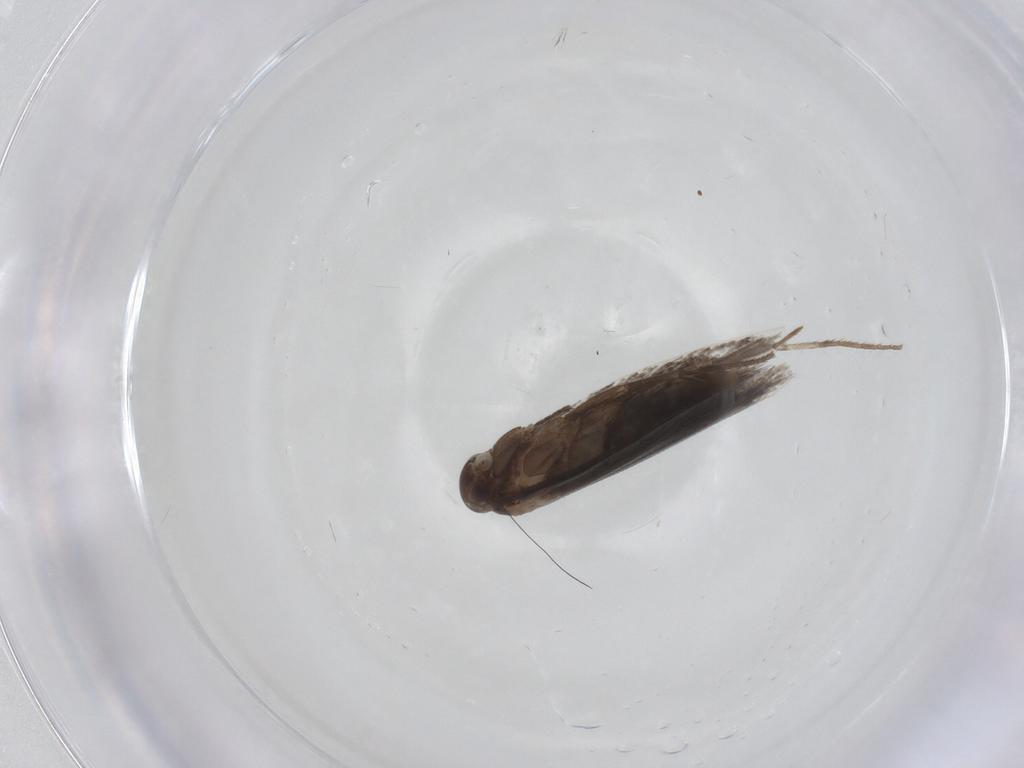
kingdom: Animalia
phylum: Arthropoda
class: Insecta
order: Lepidoptera
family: Elachistidae
